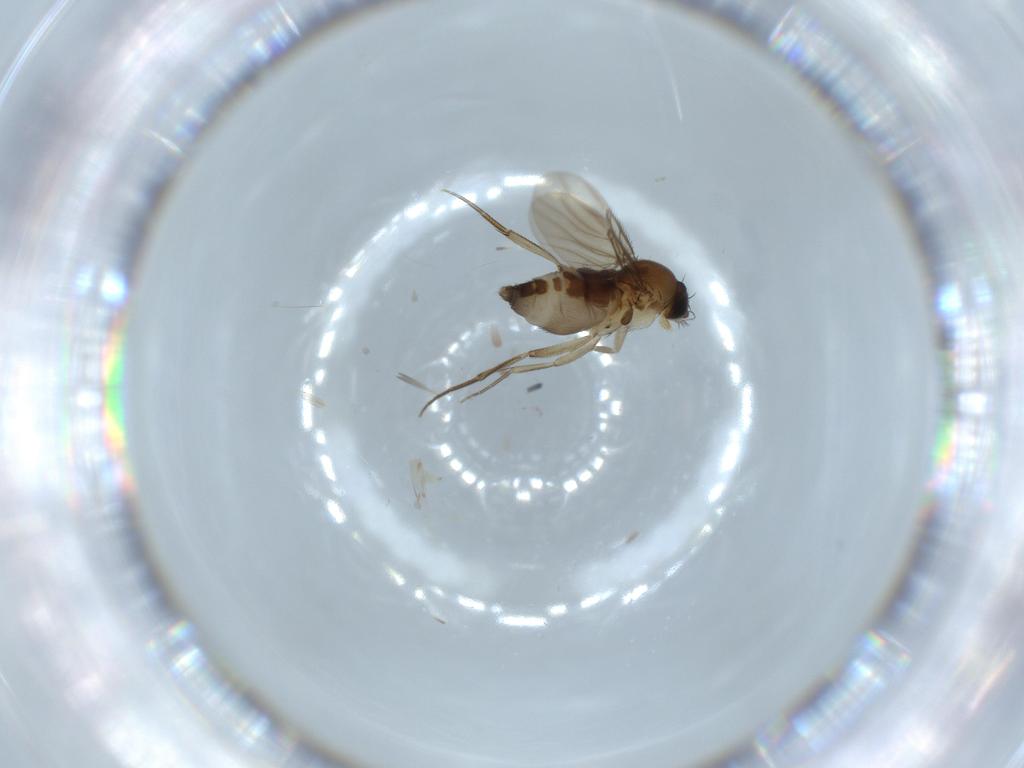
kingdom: Animalia
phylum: Arthropoda
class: Insecta
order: Diptera
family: Phoridae
